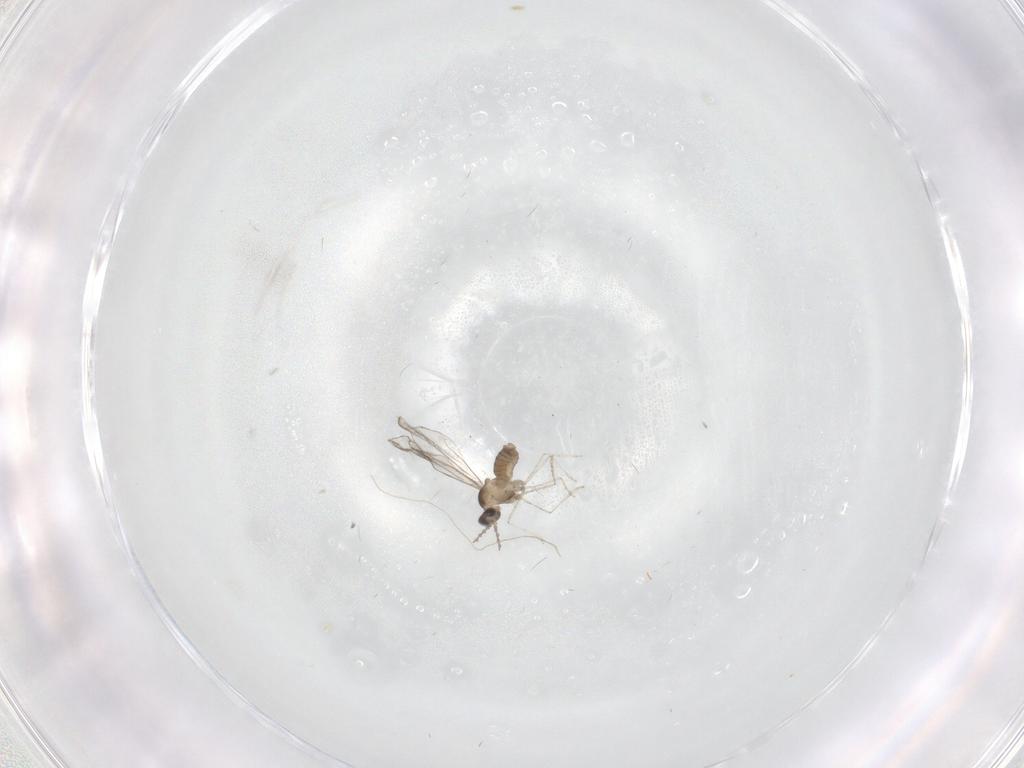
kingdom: Animalia
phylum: Arthropoda
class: Insecta
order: Diptera
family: Cecidomyiidae
